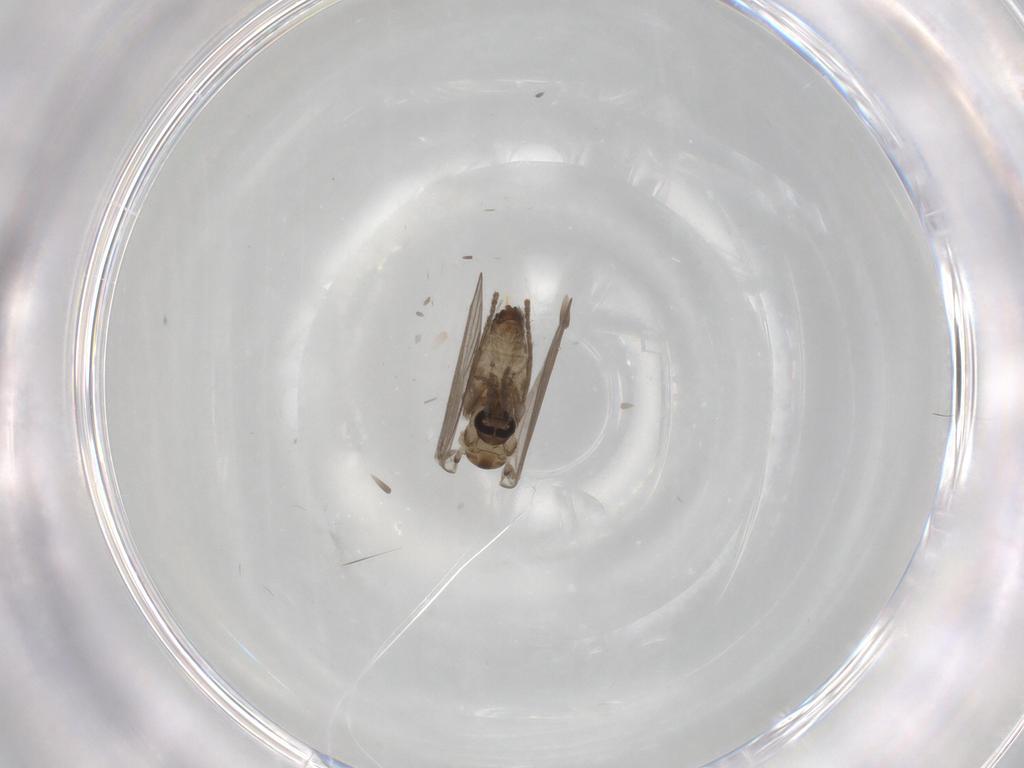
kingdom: Animalia
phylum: Arthropoda
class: Insecta
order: Diptera
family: Psychodidae
